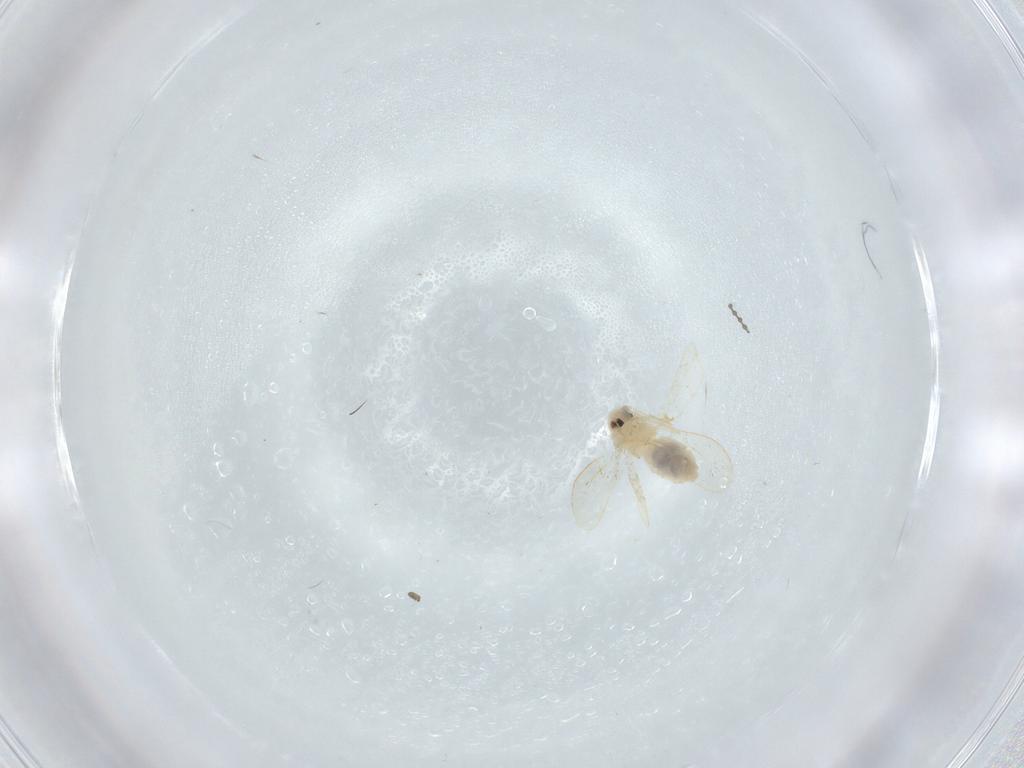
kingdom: Animalia
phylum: Arthropoda
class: Insecta
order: Hemiptera
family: Aleyrodidae
